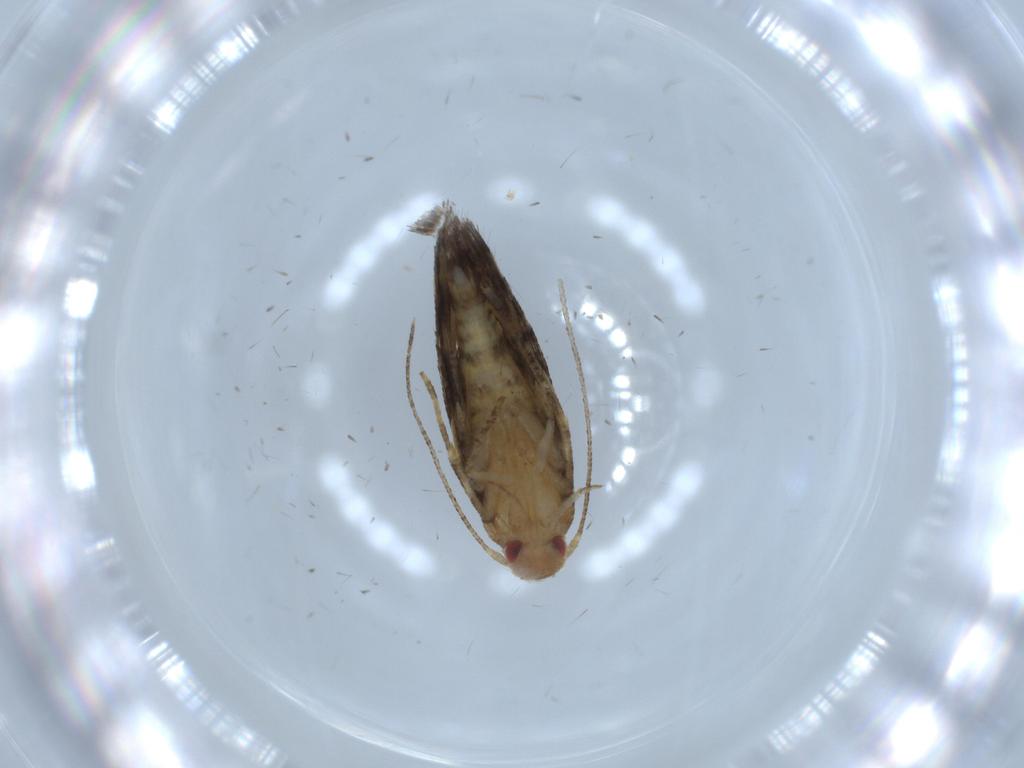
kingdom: Animalia
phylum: Arthropoda
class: Insecta
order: Lepidoptera
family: Momphidae
